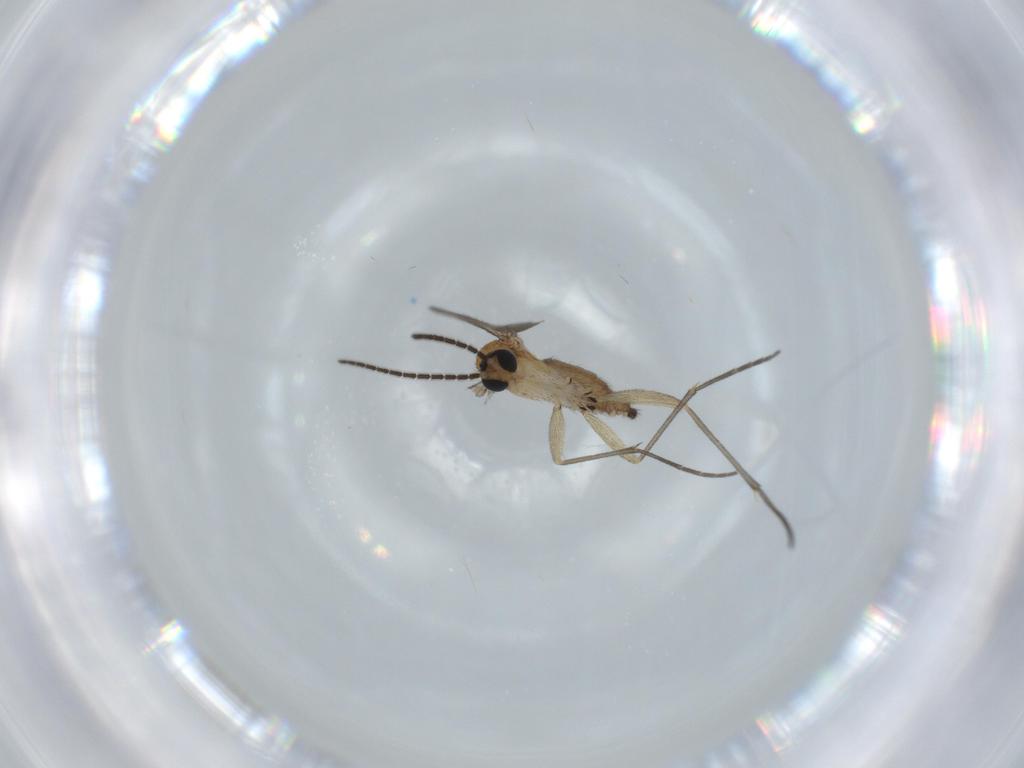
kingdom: Animalia
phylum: Arthropoda
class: Insecta
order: Diptera
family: Sciaridae
